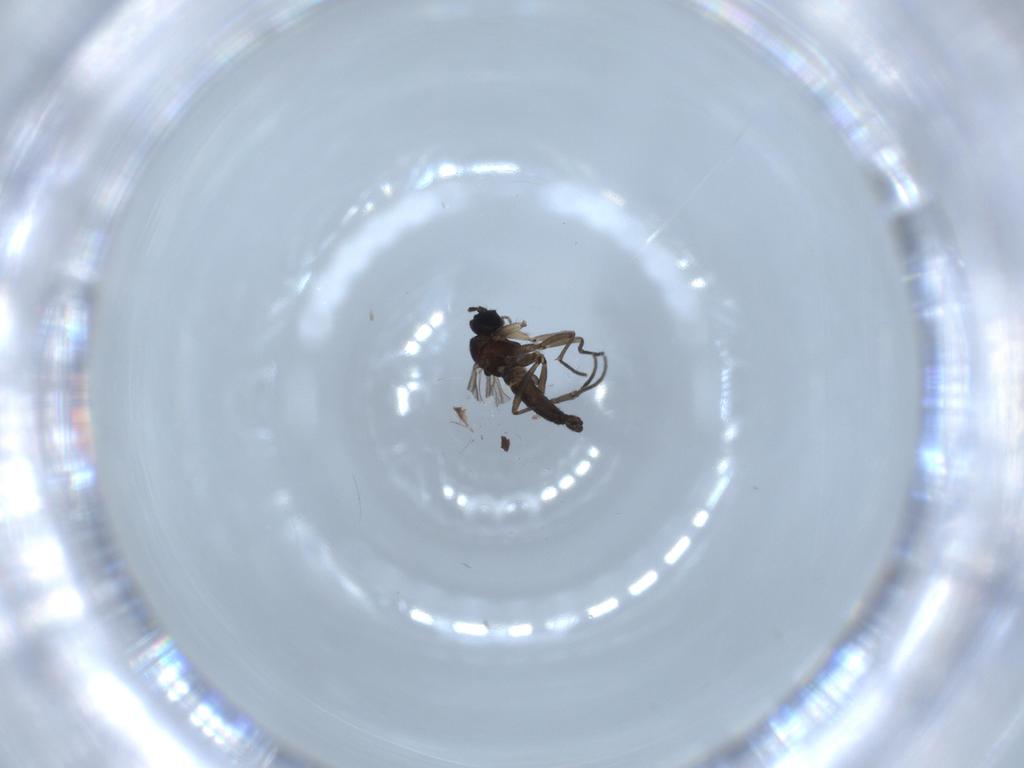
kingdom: Animalia
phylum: Arthropoda
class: Insecta
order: Diptera
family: Sciaridae
